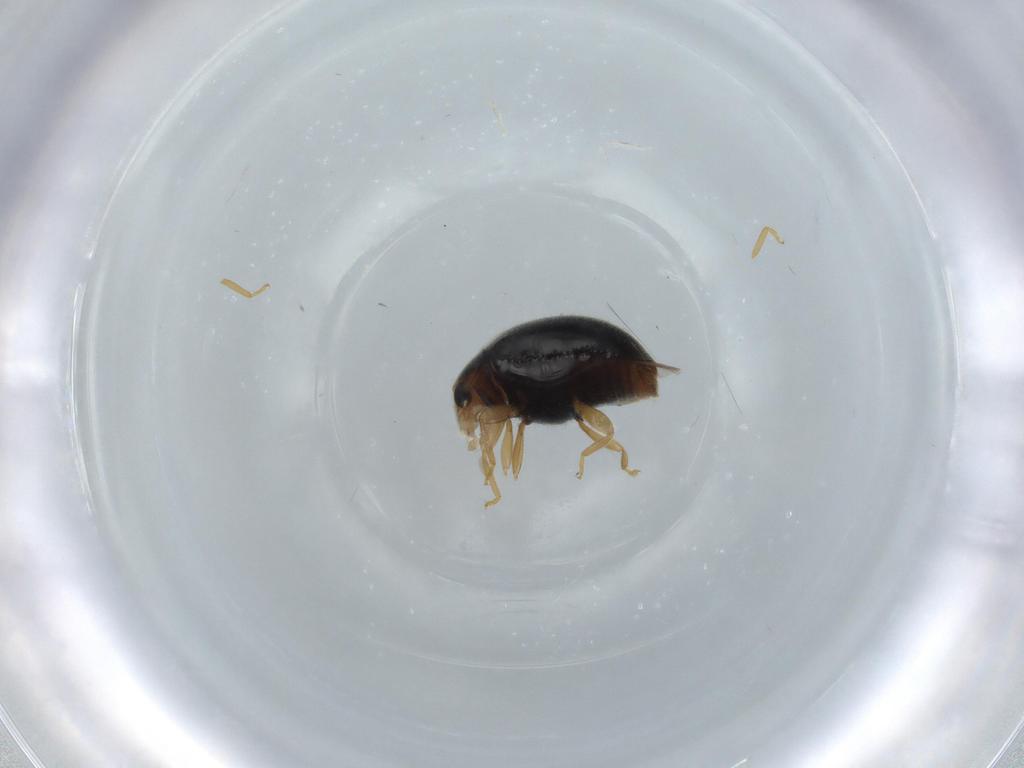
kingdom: Animalia
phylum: Arthropoda
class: Insecta
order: Coleoptera
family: Coccinellidae
